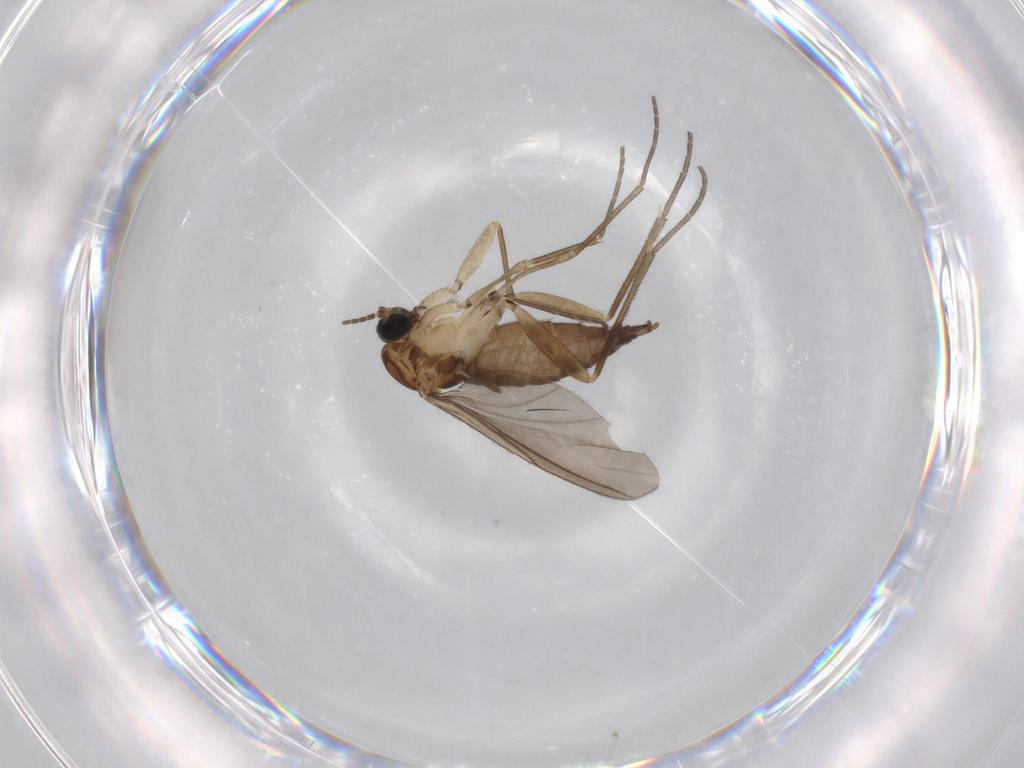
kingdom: Animalia
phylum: Arthropoda
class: Insecta
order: Diptera
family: Sciaridae
